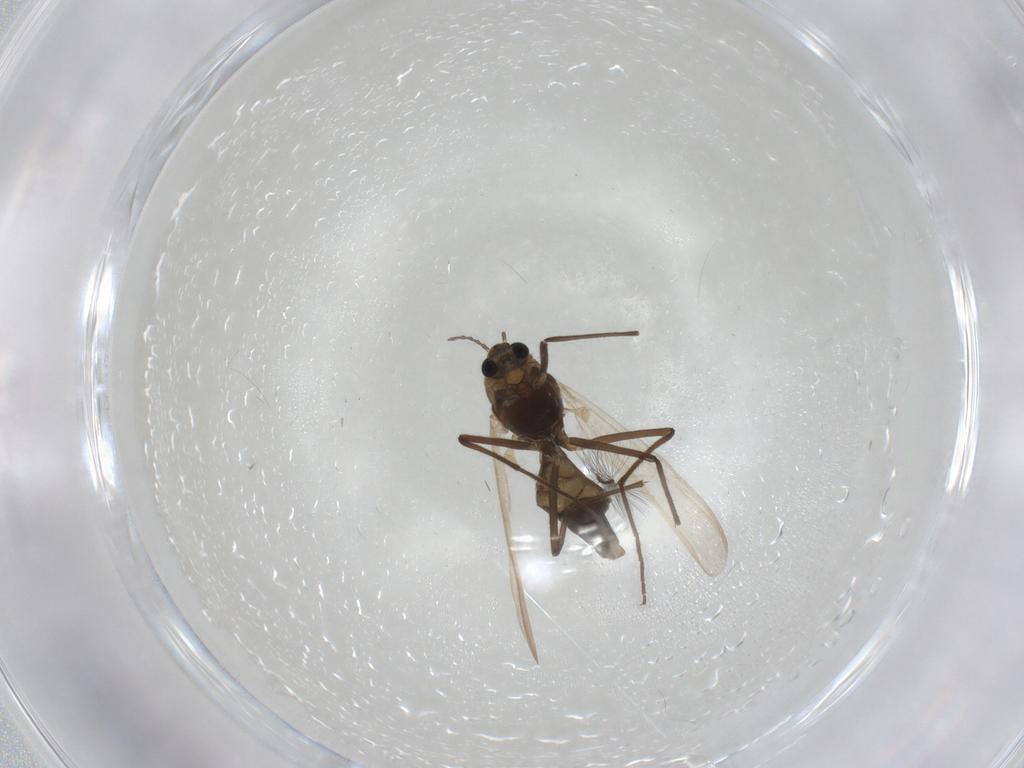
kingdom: Animalia
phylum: Arthropoda
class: Insecta
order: Diptera
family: Chironomidae
